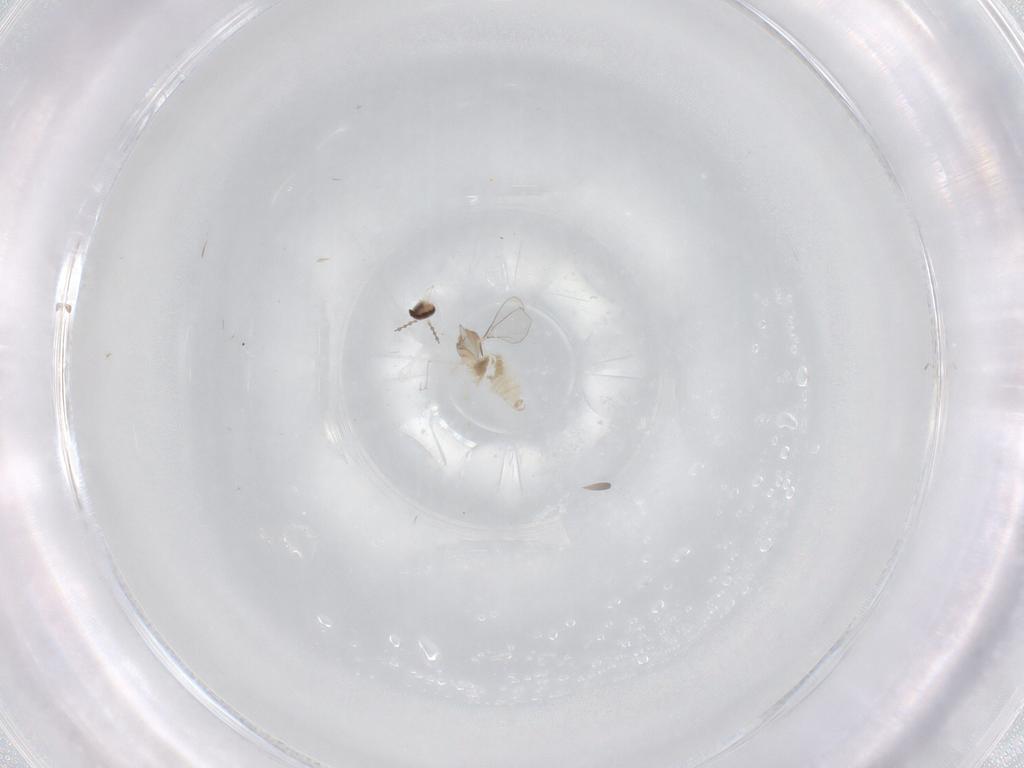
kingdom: Animalia
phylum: Arthropoda
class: Insecta
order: Diptera
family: Cecidomyiidae
